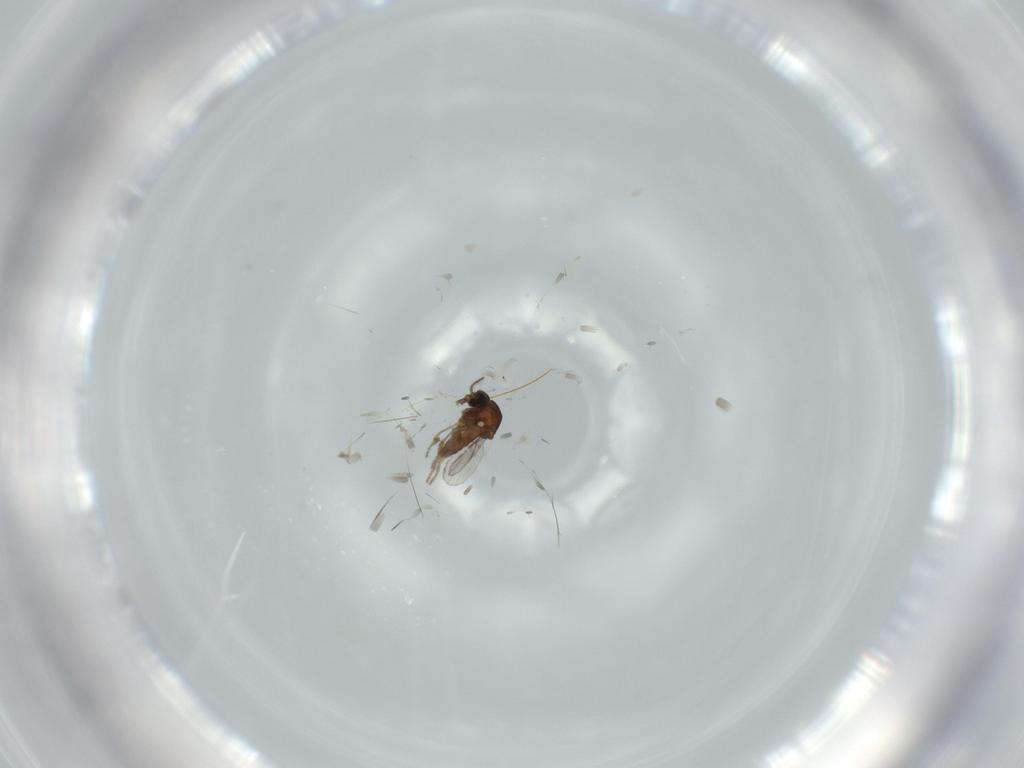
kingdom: Animalia
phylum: Arthropoda
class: Insecta
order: Diptera
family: Ceratopogonidae
